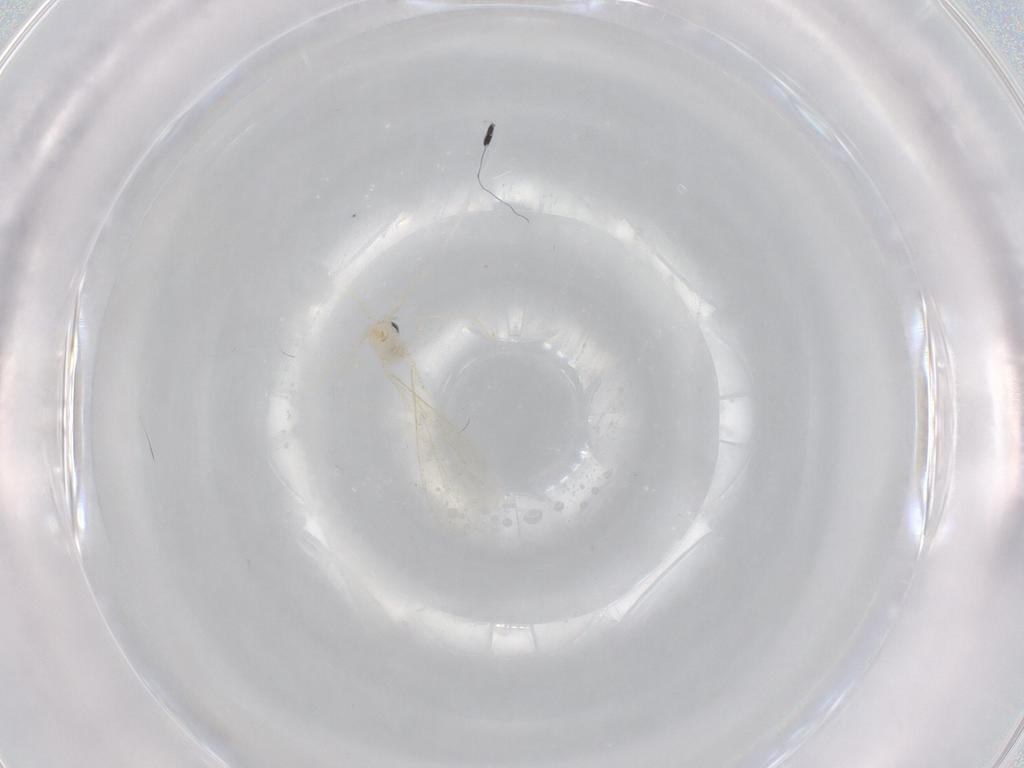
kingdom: Animalia
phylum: Arthropoda
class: Insecta
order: Diptera
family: Cecidomyiidae
